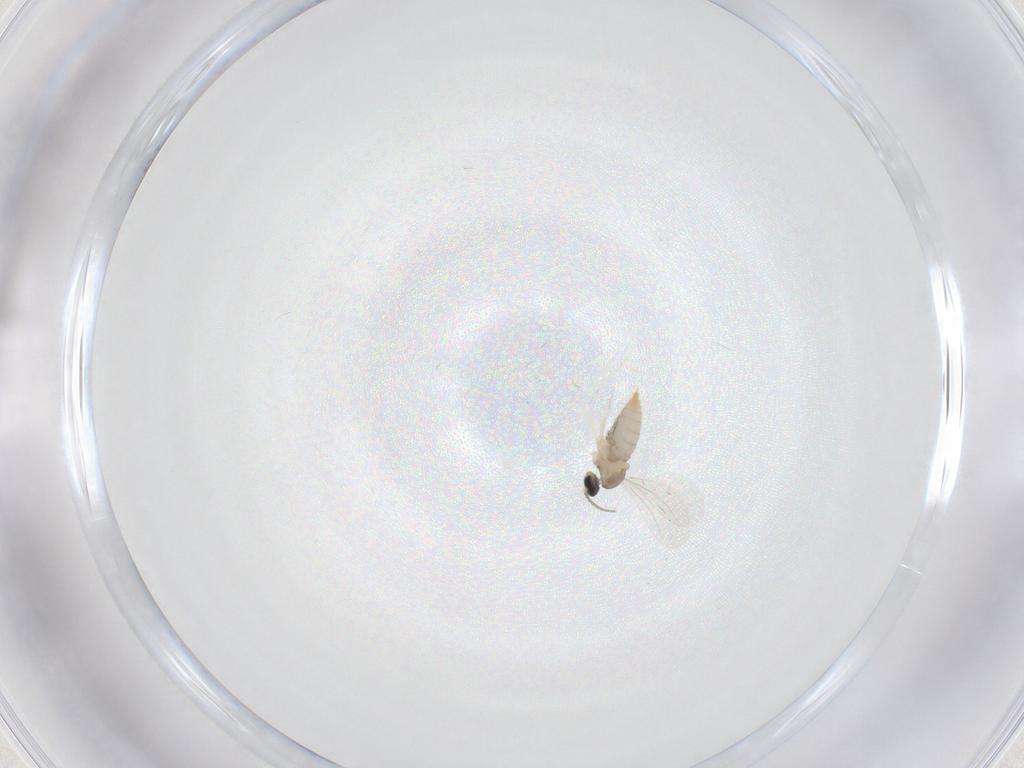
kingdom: Animalia
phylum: Arthropoda
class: Insecta
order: Diptera
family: Cecidomyiidae
